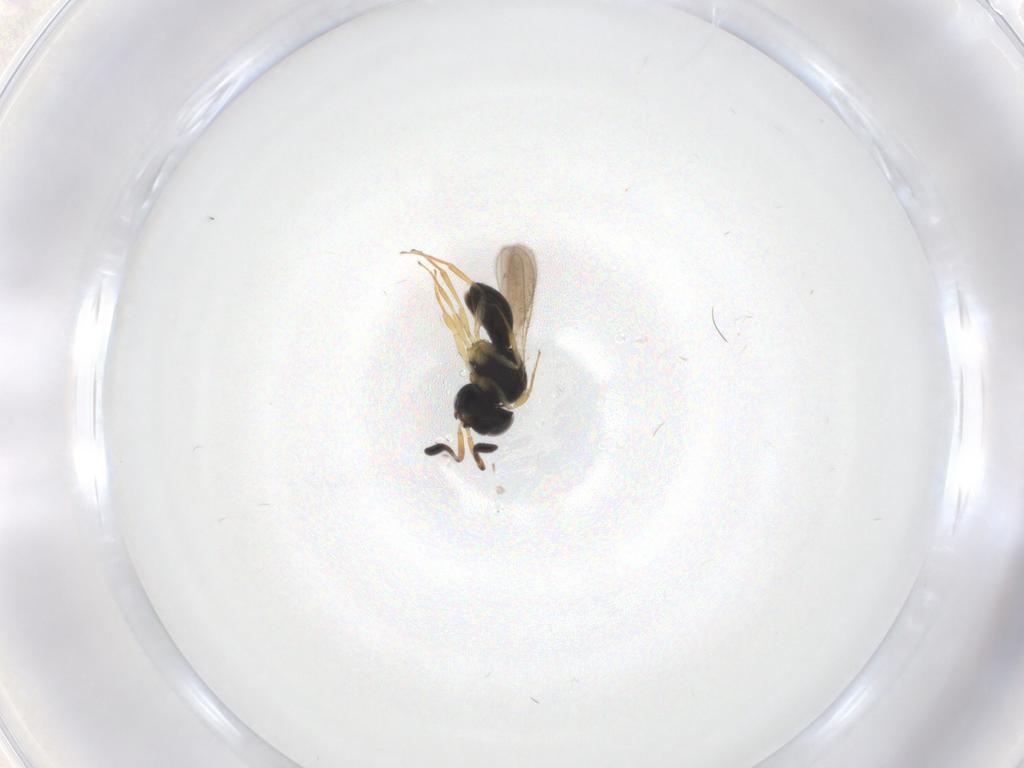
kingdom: Animalia
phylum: Arthropoda
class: Insecta
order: Hymenoptera
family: Scelionidae
